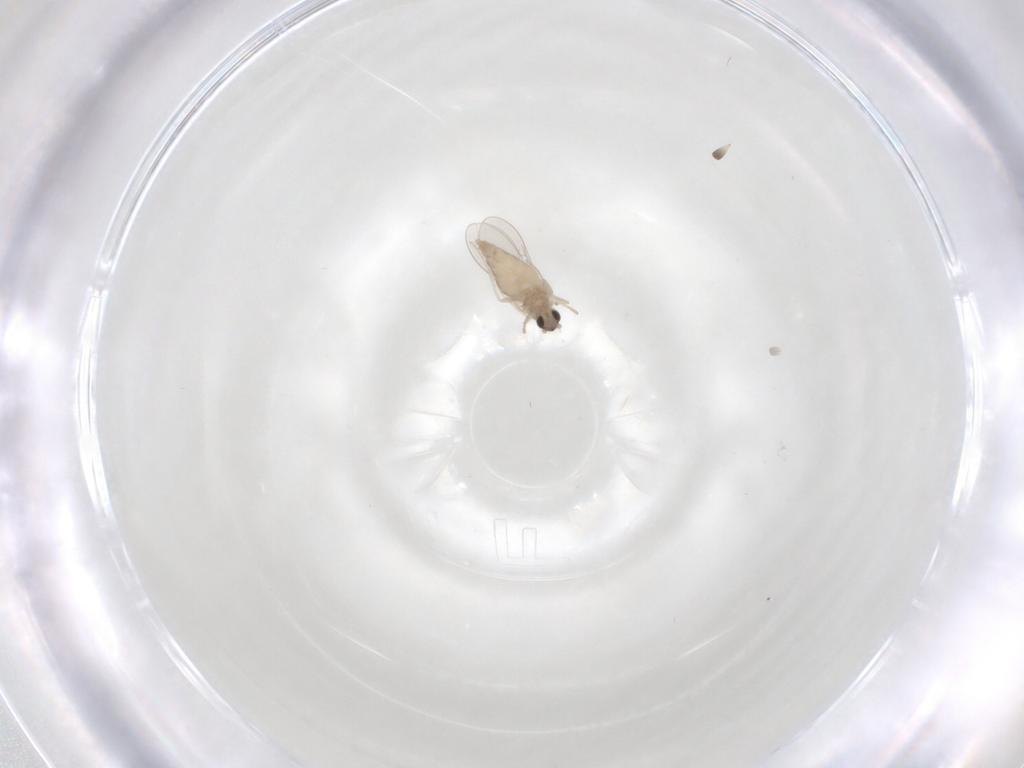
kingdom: Animalia
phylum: Arthropoda
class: Insecta
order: Diptera
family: Cecidomyiidae
